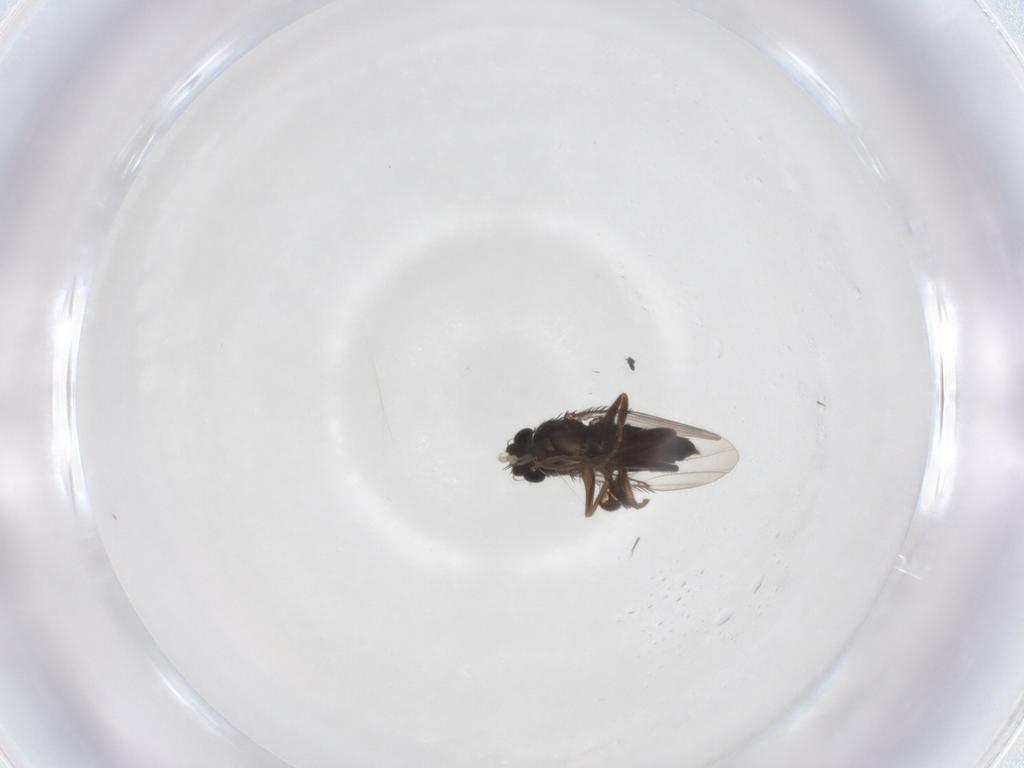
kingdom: Animalia
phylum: Arthropoda
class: Insecta
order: Diptera
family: Phoridae
